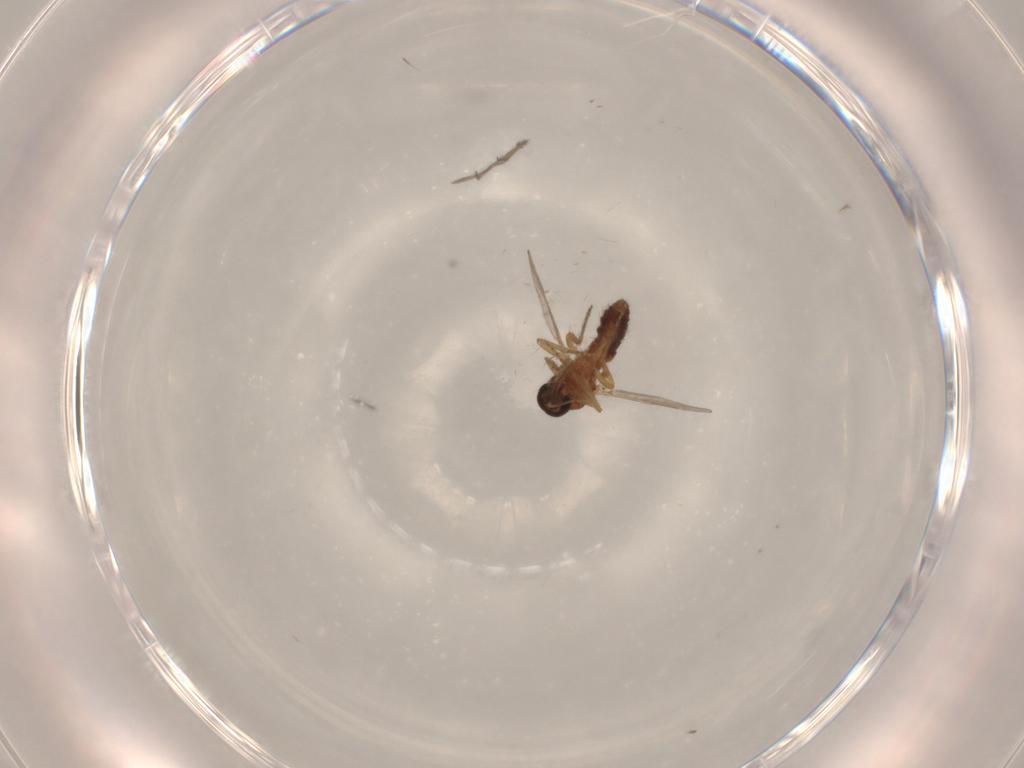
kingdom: Animalia
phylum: Arthropoda
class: Insecta
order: Diptera
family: Ceratopogonidae
